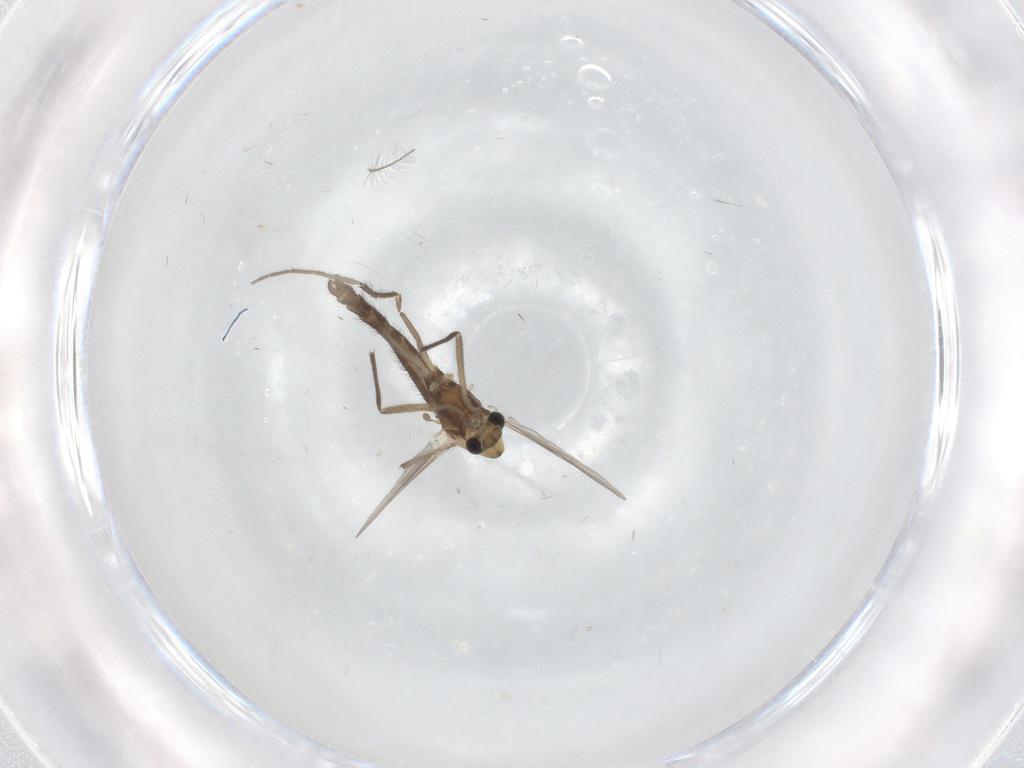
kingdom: Animalia
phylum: Arthropoda
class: Insecta
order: Diptera
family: Chironomidae
